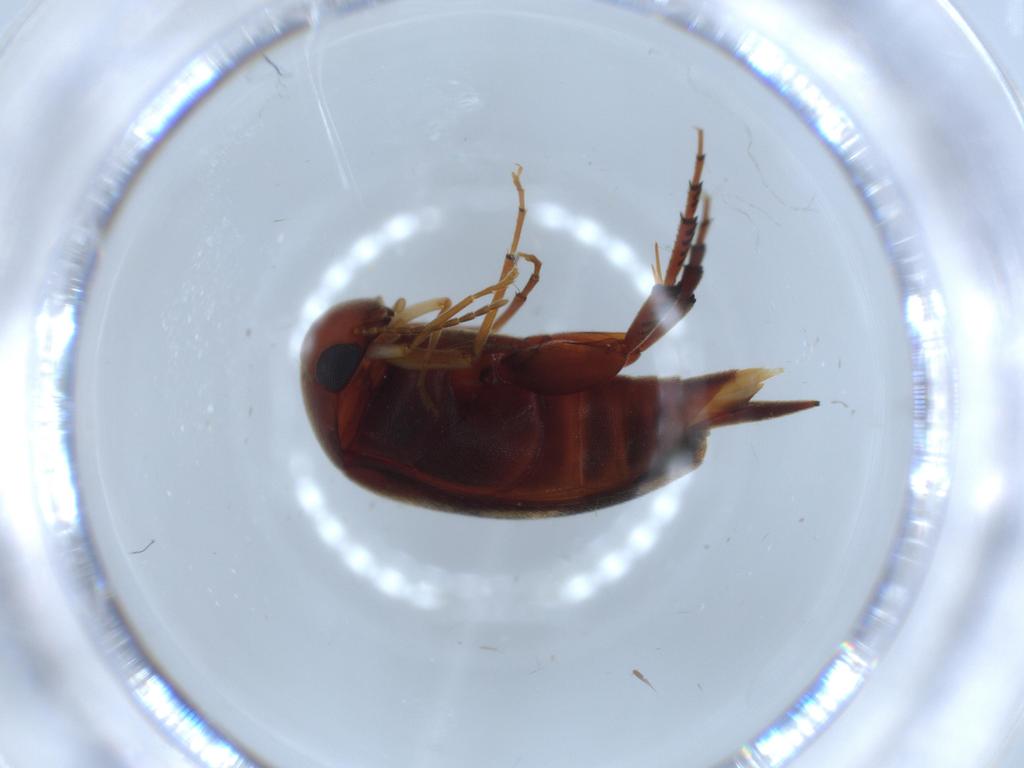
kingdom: Animalia
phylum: Arthropoda
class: Insecta
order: Coleoptera
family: Mordellidae
